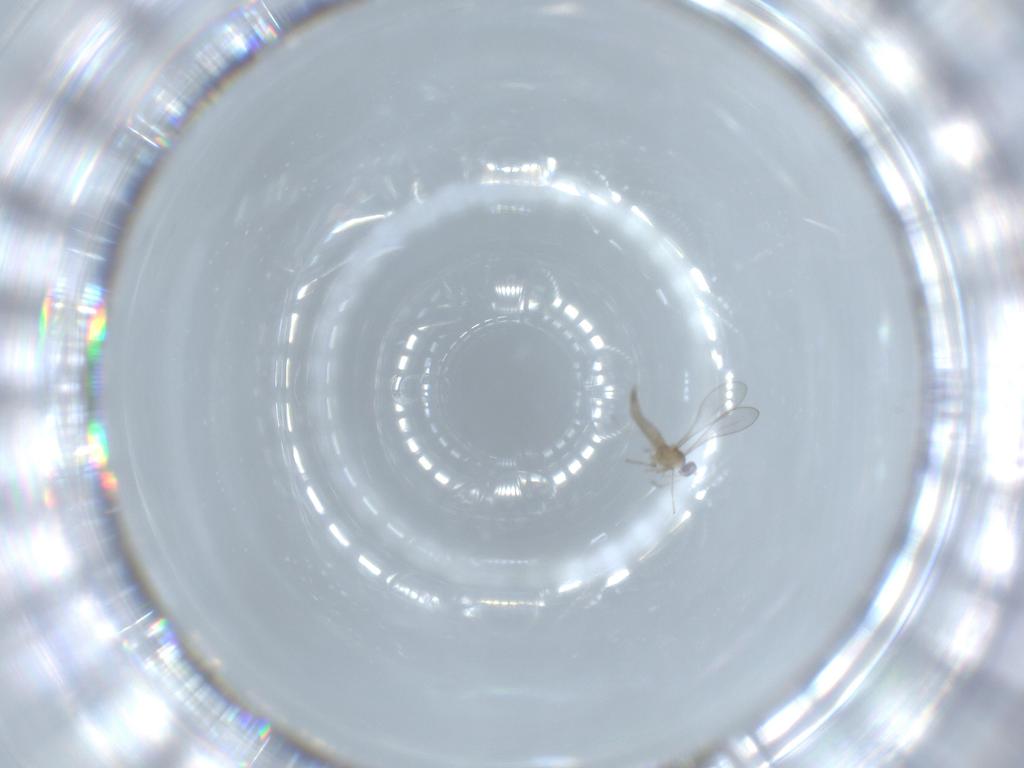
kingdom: Animalia
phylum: Arthropoda
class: Insecta
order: Diptera
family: Cecidomyiidae
